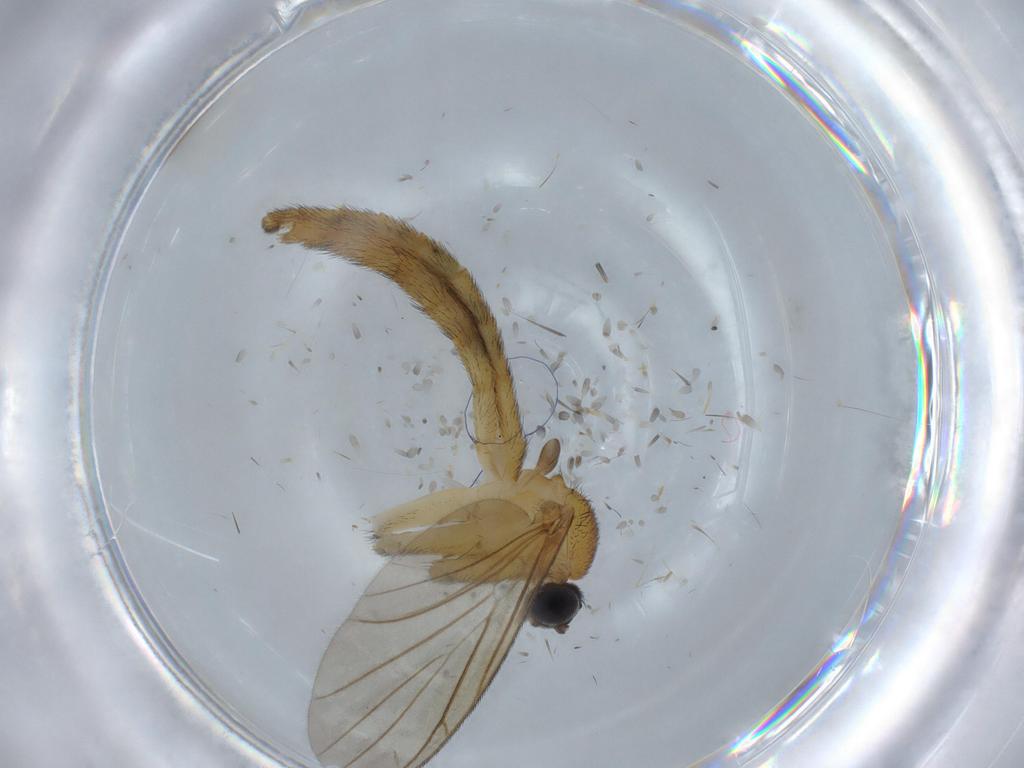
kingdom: Animalia
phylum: Arthropoda
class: Insecta
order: Diptera
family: Psychodidae
